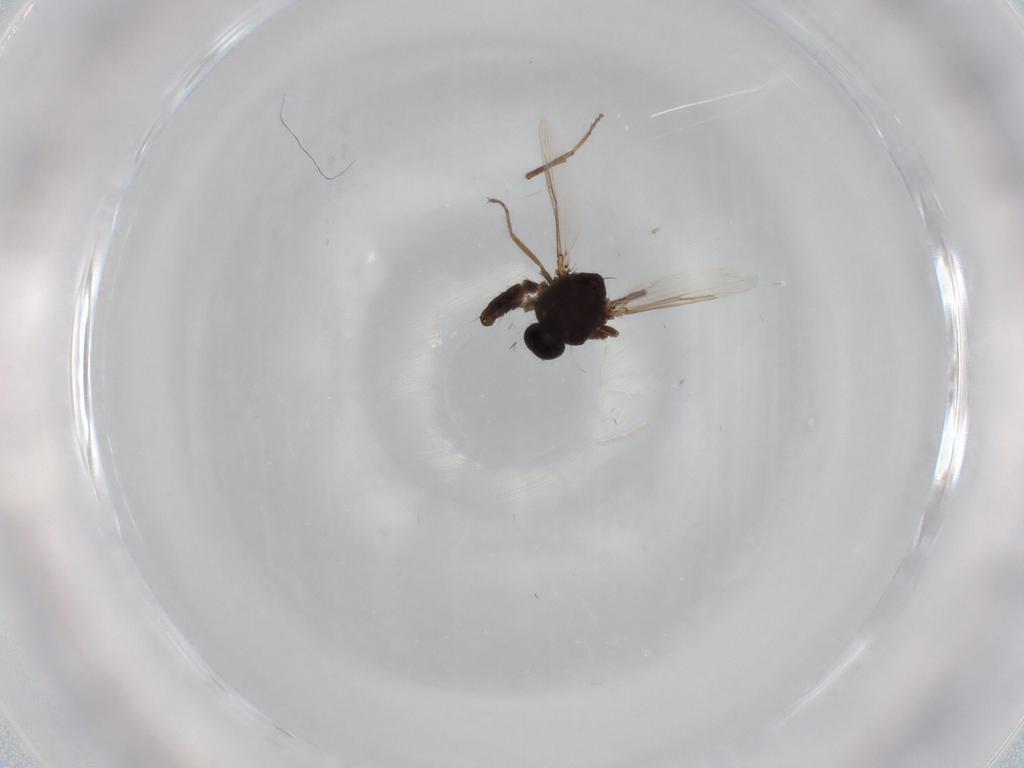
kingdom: Animalia
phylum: Arthropoda
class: Insecta
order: Diptera
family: Ceratopogonidae
